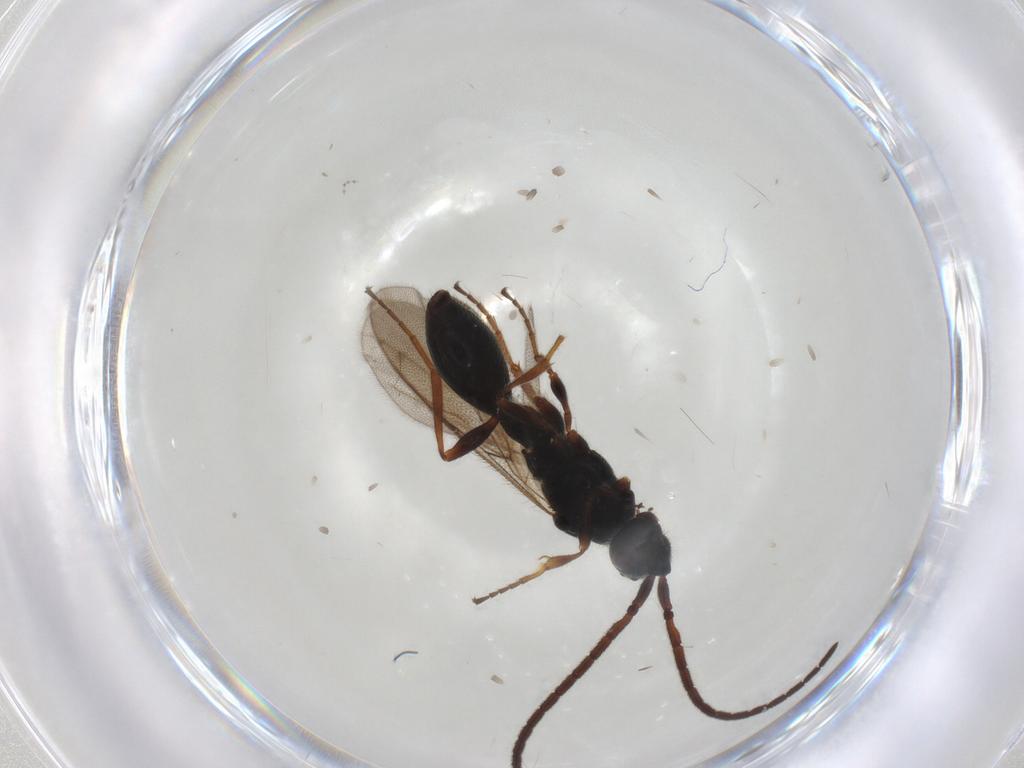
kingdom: Animalia
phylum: Arthropoda
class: Insecta
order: Hymenoptera
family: Diapriidae
